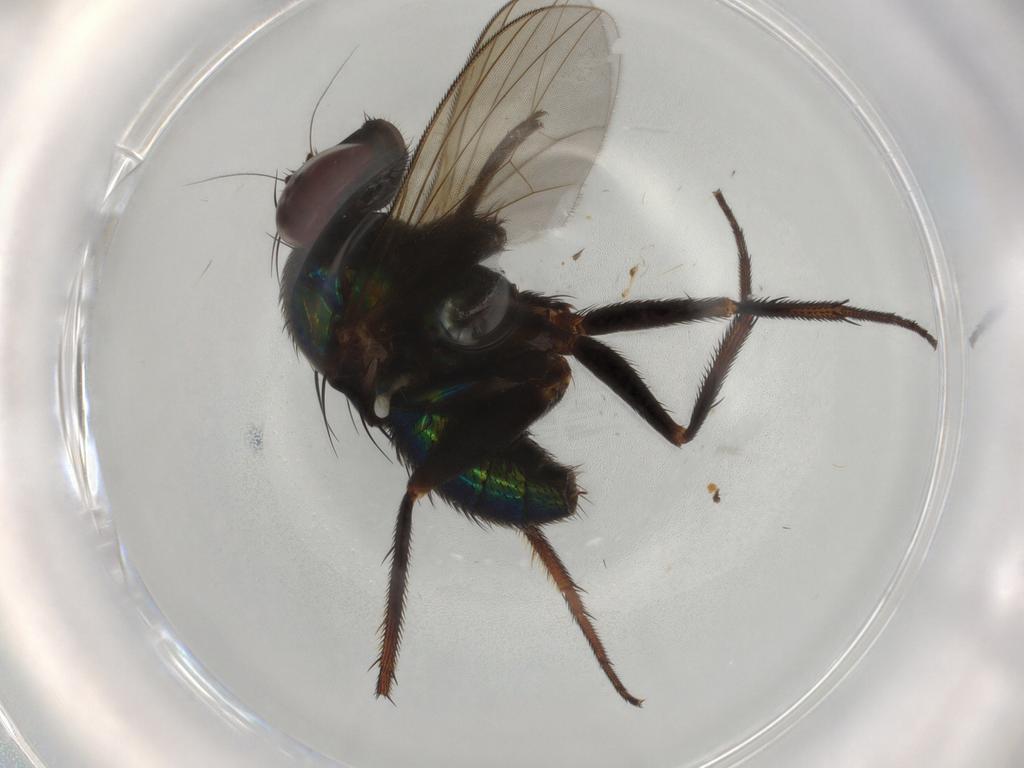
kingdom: Animalia
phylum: Arthropoda
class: Insecta
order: Diptera
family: Dolichopodidae
